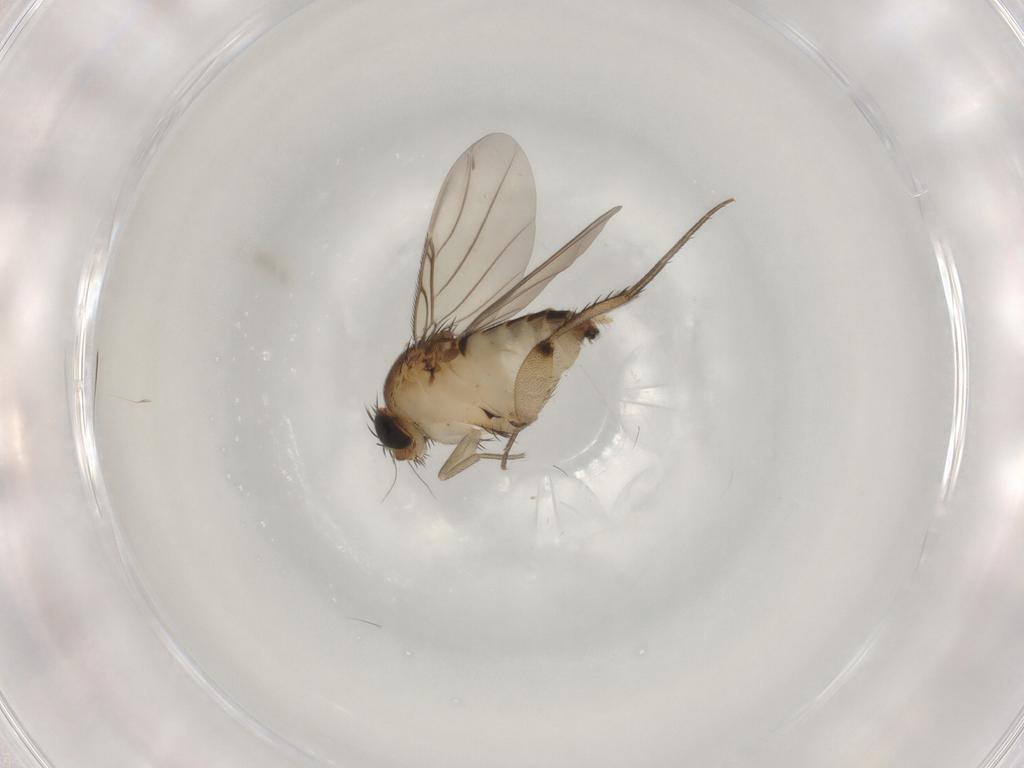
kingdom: Animalia
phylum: Arthropoda
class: Insecta
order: Diptera
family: Phoridae
